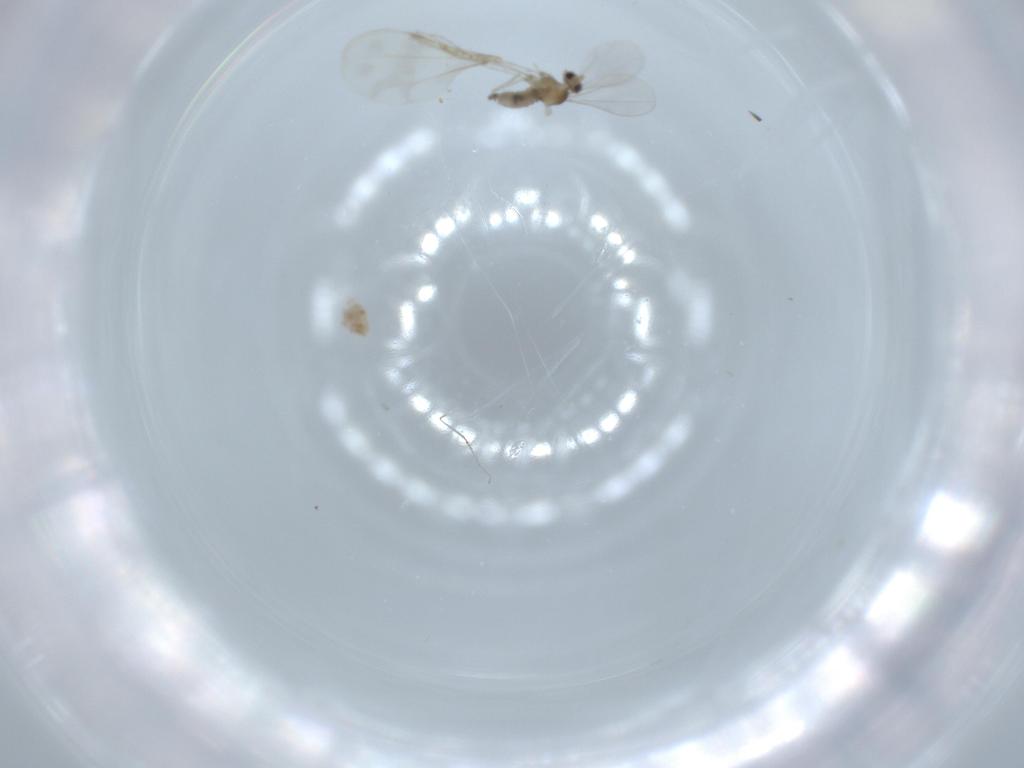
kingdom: Animalia
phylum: Arthropoda
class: Insecta
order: Diptera
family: Cecidomyiidae
